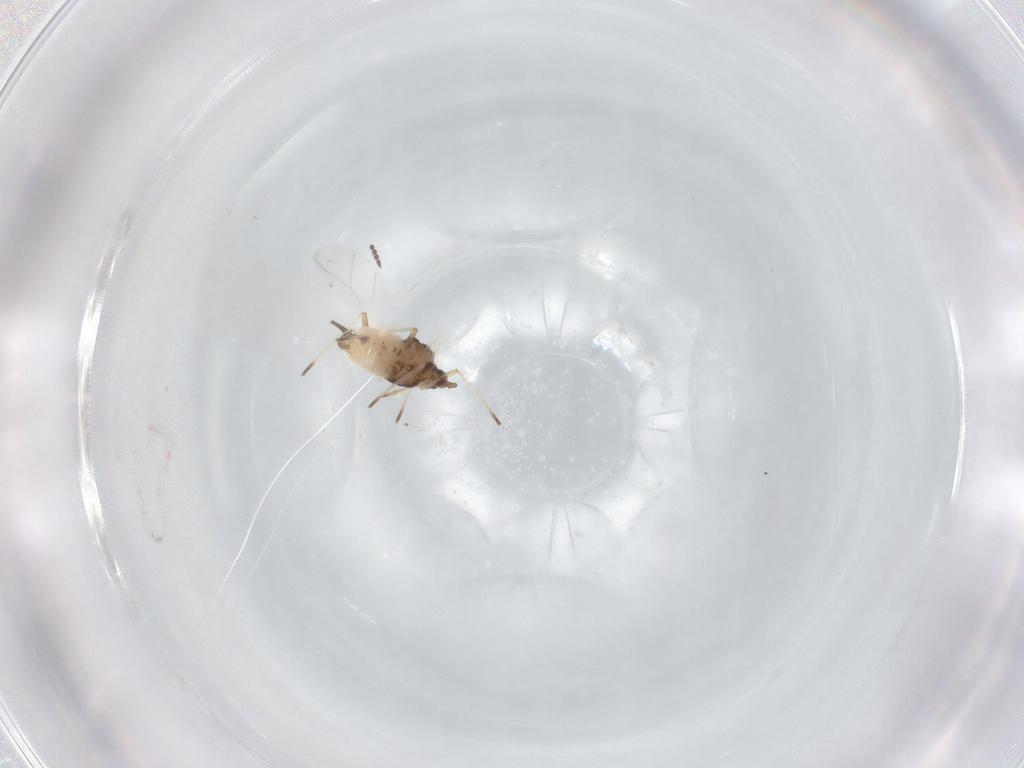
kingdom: Animalia
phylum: Arthropoda
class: Insecta
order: Hemiptera
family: Aphididae
